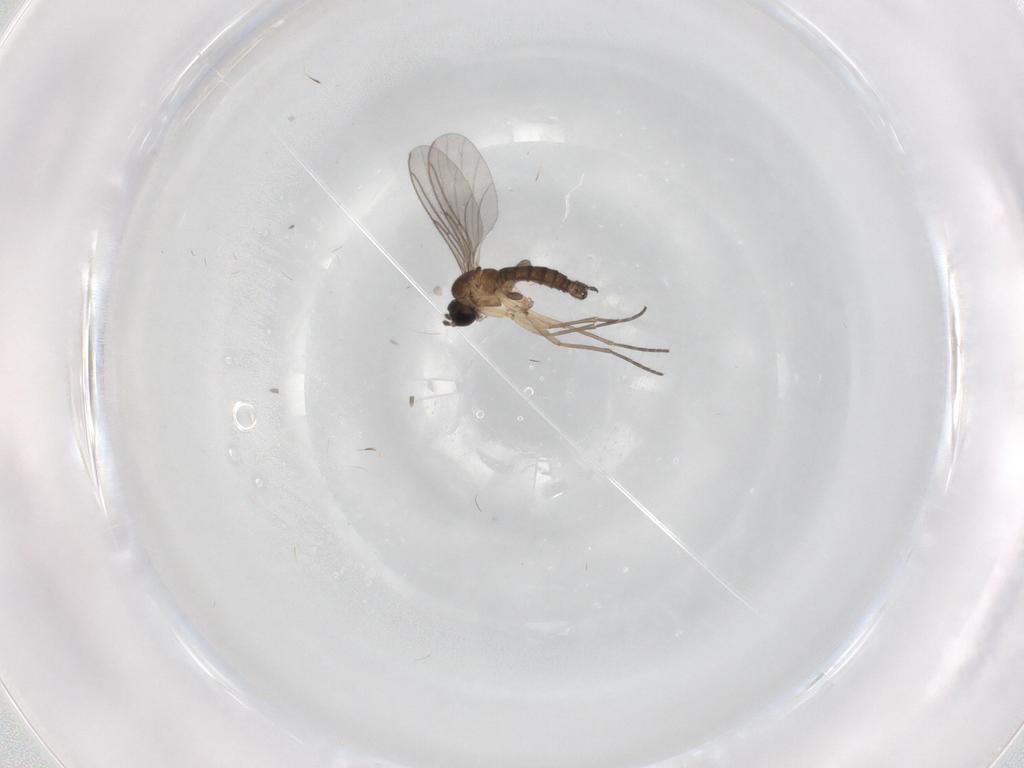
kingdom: Animalia
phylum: Arthropoda
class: Insecta
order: Diptera
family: Sciaridae
